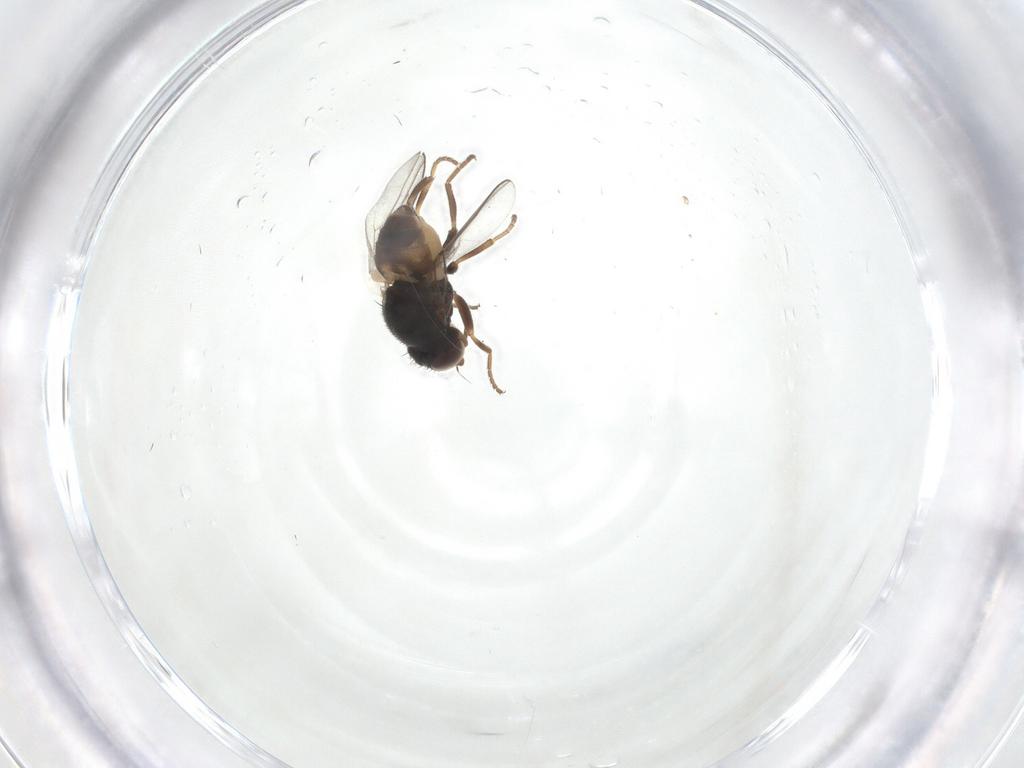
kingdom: Animalia
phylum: Arthropoda
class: Insecta
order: Diptera
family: Chloropidae
